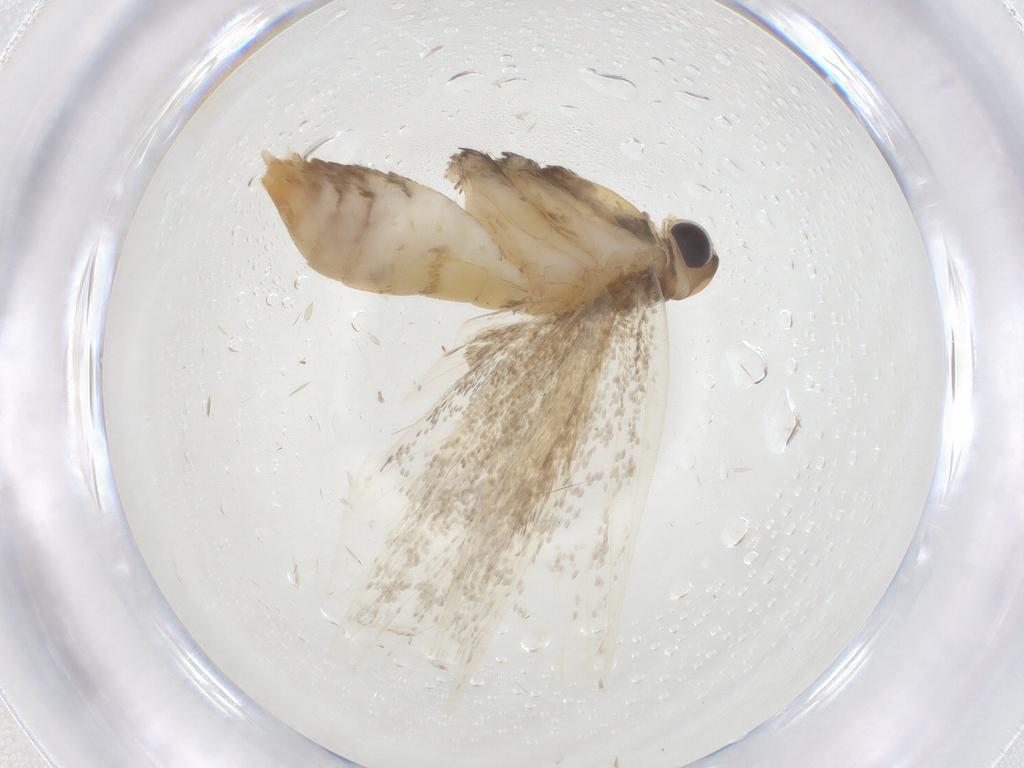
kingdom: Animalia
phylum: Arthropoda
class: Insecta
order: Lepidoptera
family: Lecithoceridae
